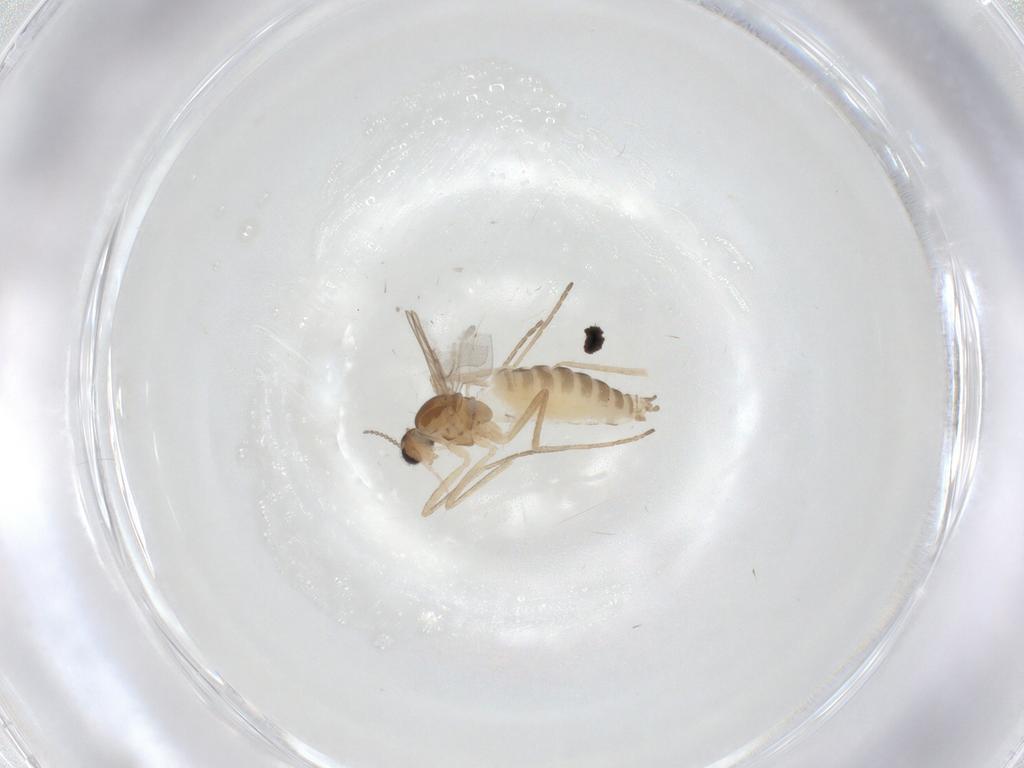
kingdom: Animalia
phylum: Arthropoda
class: Insecta
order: Diptera
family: Cecidomyiidae
